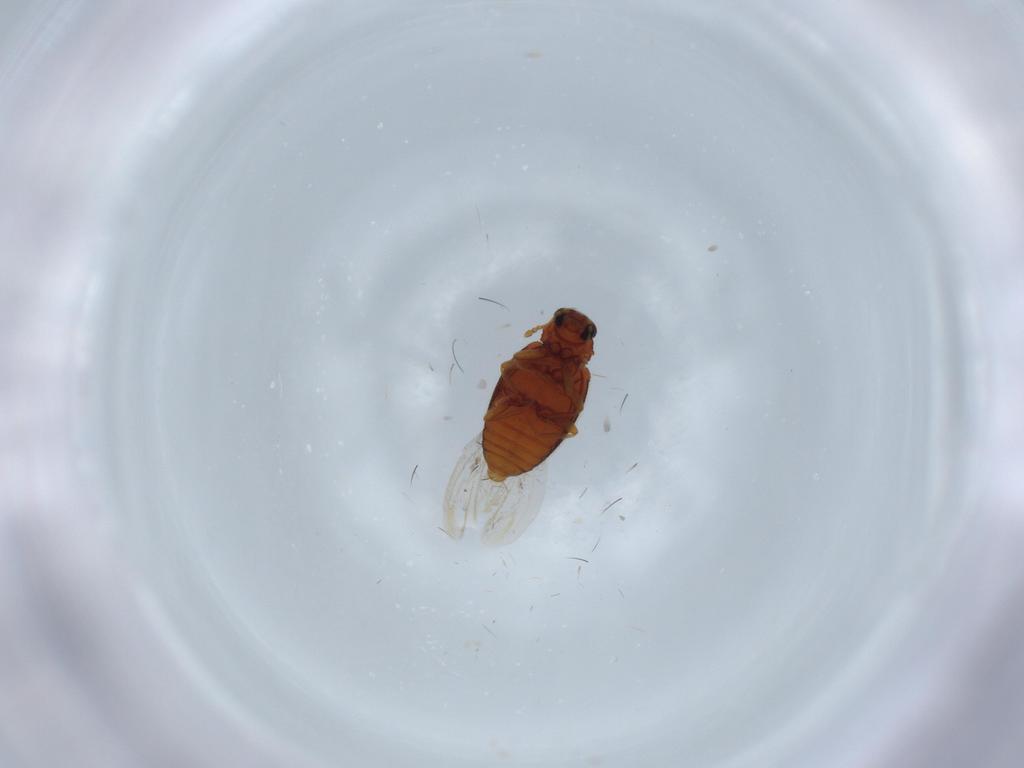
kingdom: Animalia
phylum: Arthropoda
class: Insecta
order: Coleoptera
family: Latridiidae
